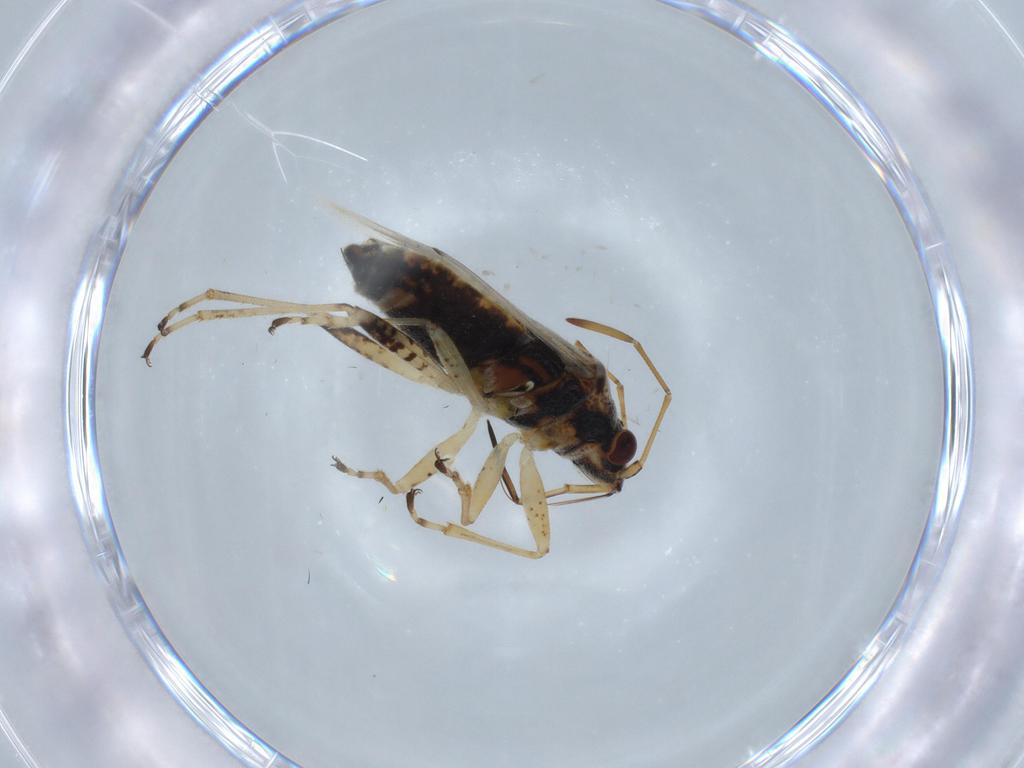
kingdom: Animalia
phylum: Arthropoda
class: Insecta
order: Hemiptera
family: Lygaeidae
